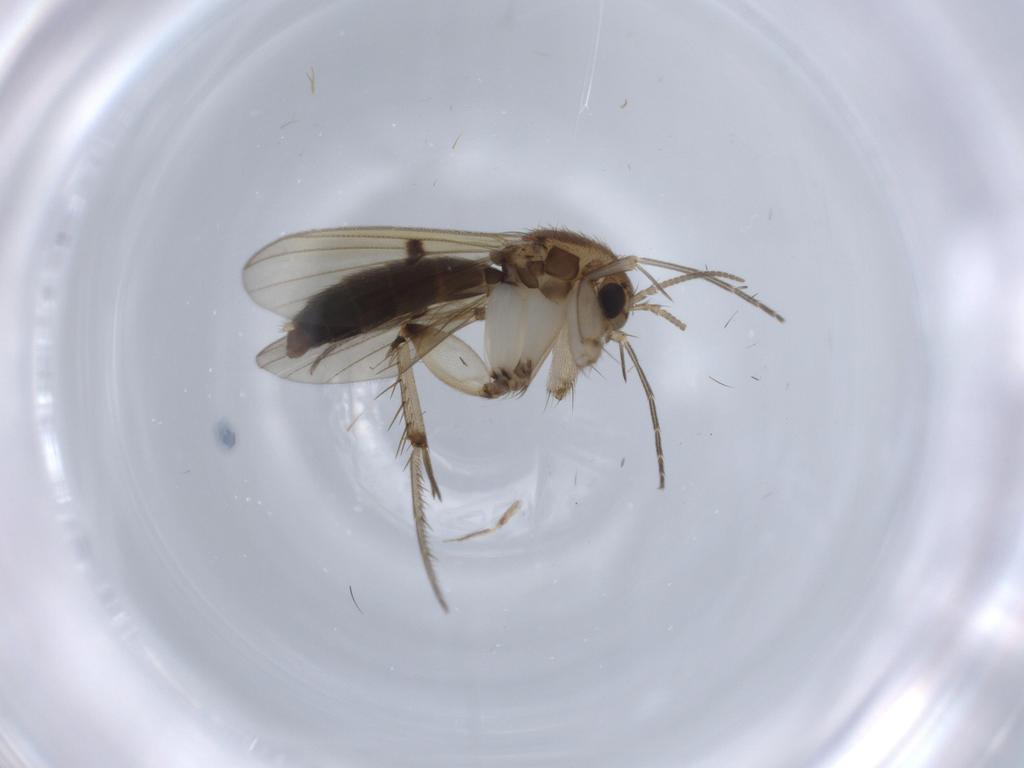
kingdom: Animalia
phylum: Arthropoda
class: Insecta
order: Diptera
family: Mycetophilidae
